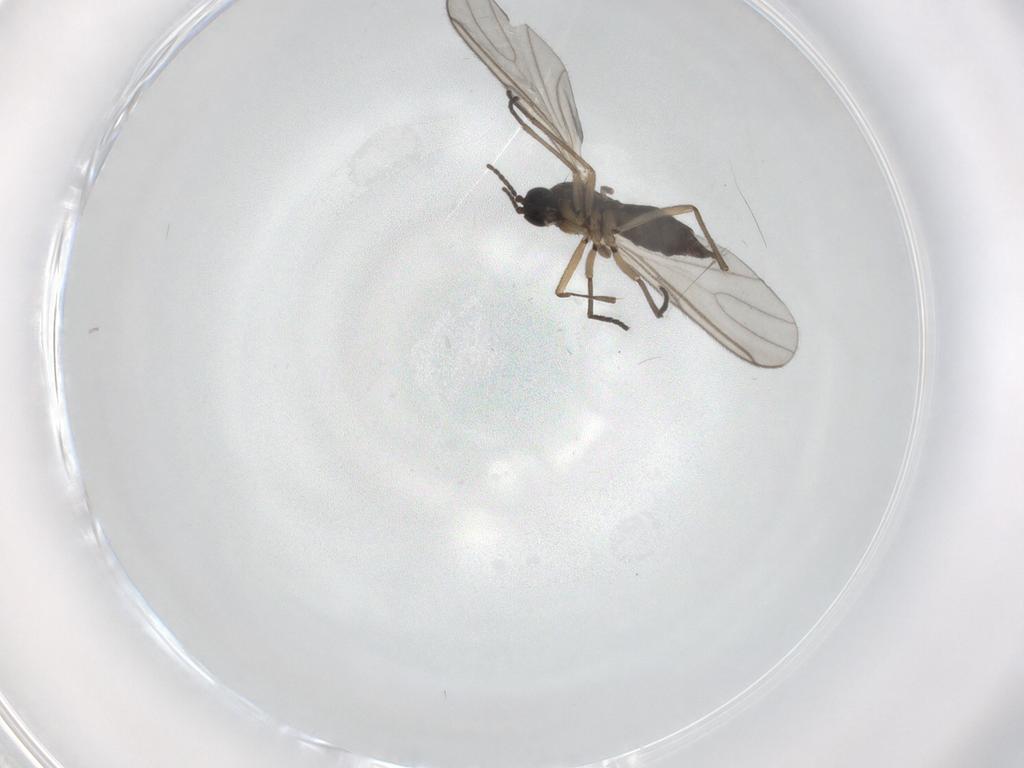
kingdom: Animalia
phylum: Arthropoda
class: Insecta
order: Diptera
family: Sciaridae
